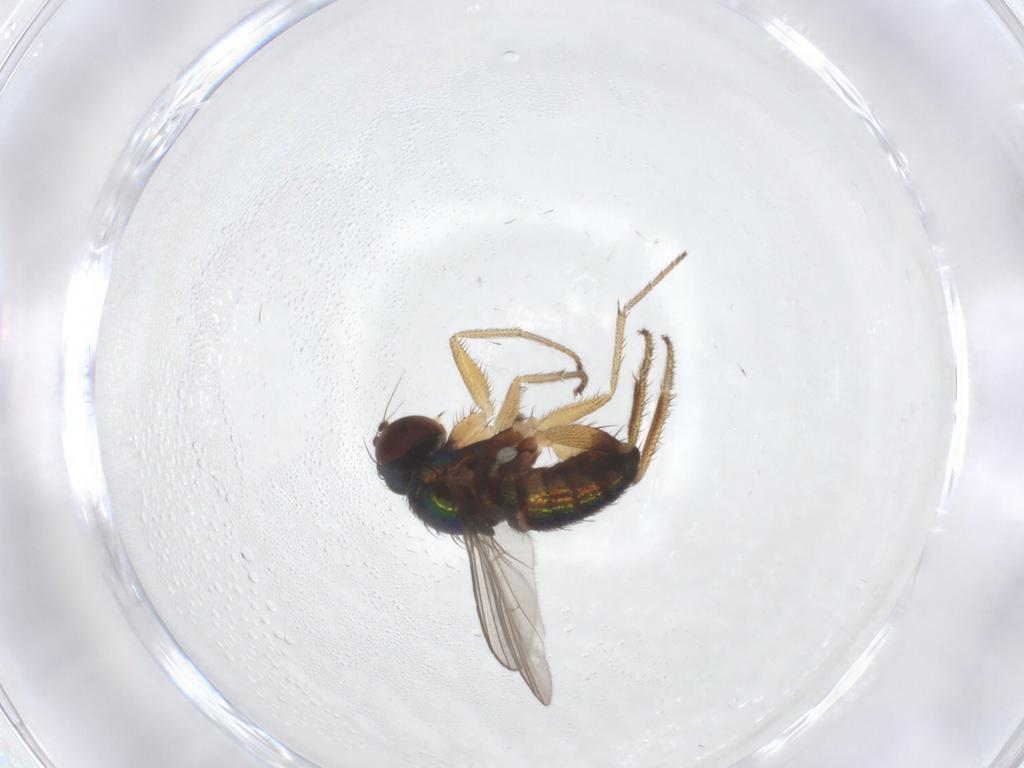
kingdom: Animalia
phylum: Arthropoda
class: Insecta
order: Diptera
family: Dolichopodidae
